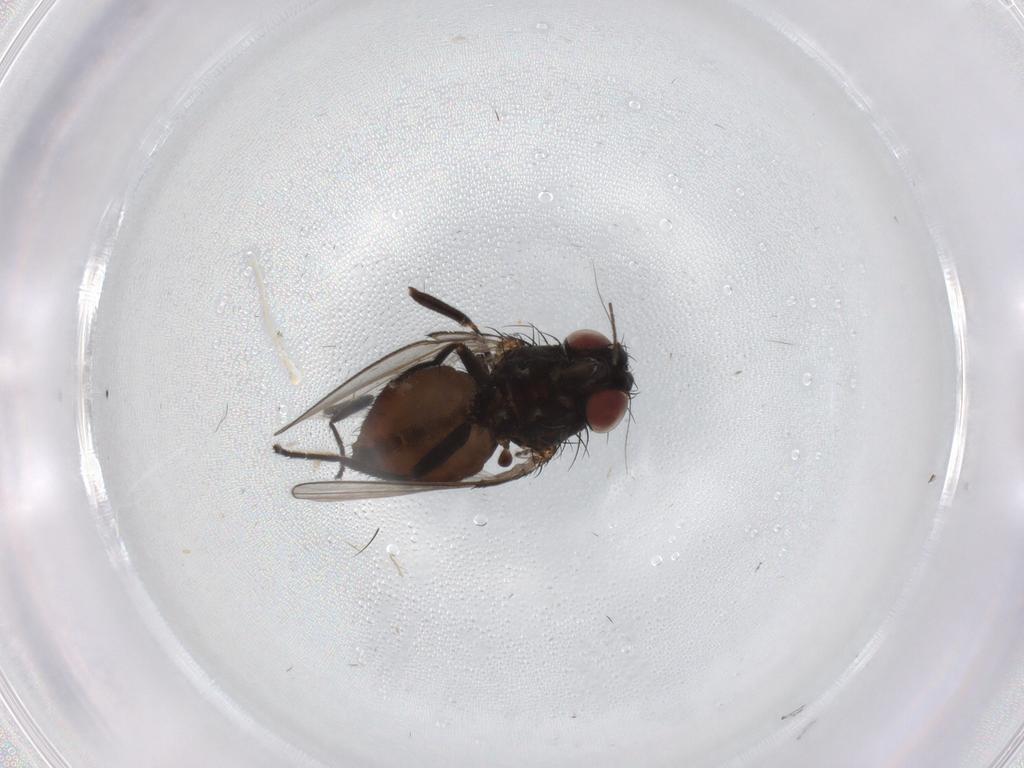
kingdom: Animalia
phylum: Arthropoda
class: Insecta
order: Diptera
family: Milichiidae
